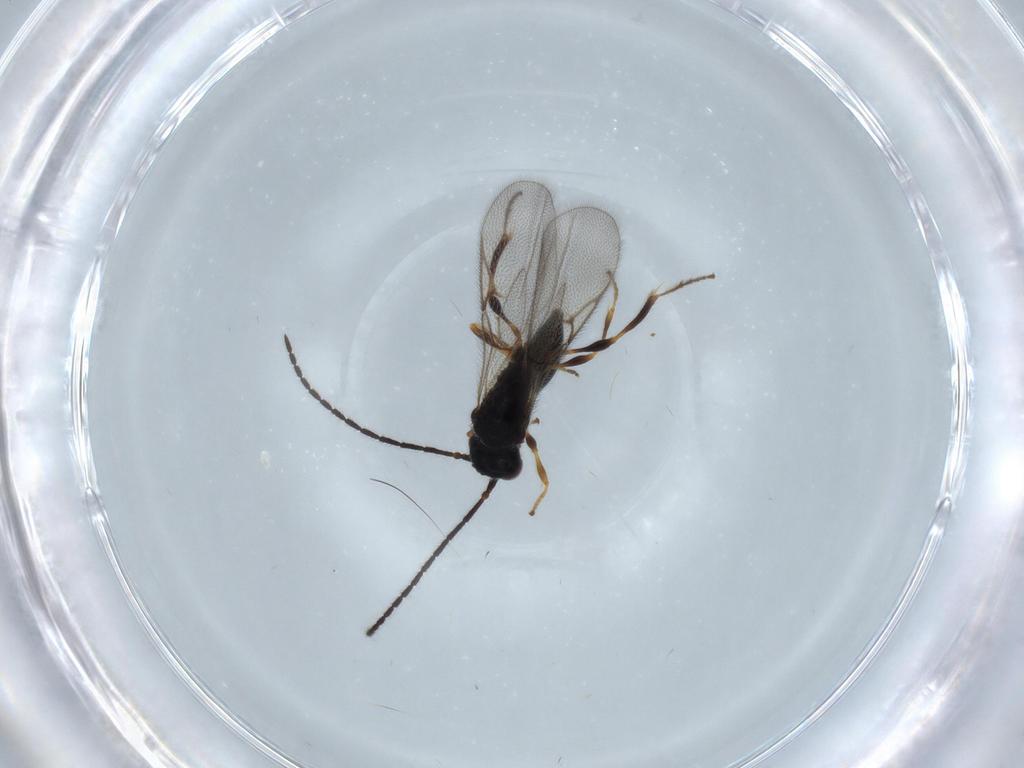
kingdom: Animalia
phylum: Arthropoda
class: Insecta
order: Hymenoptera
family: Diapriidae
